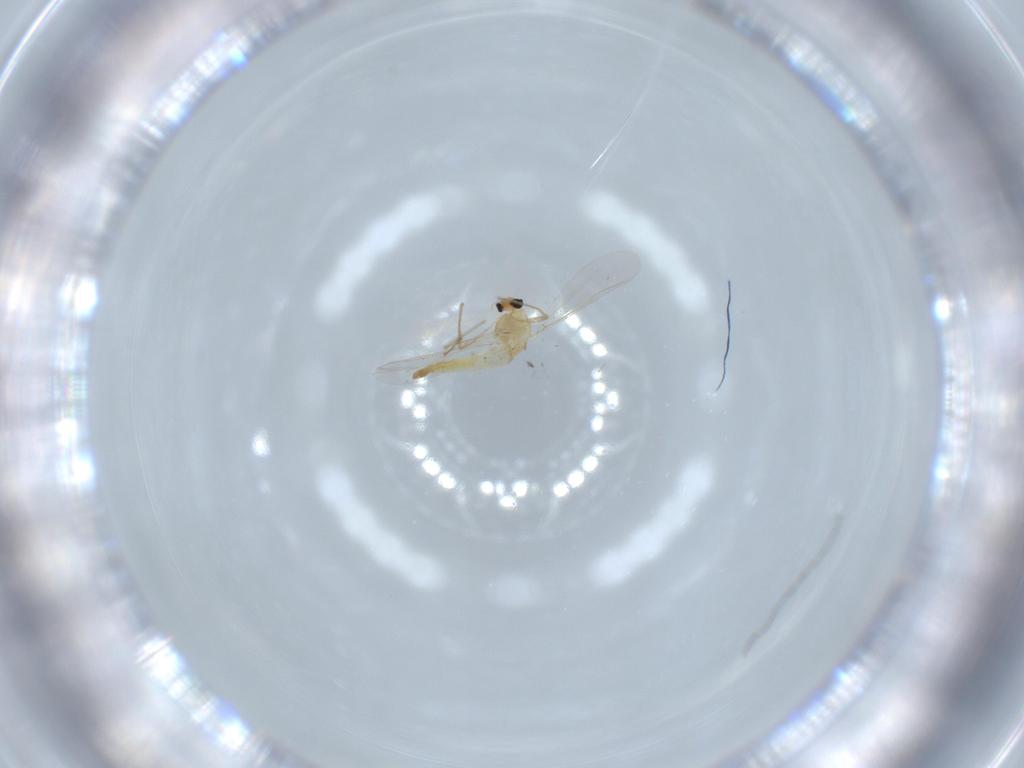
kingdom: Animalia
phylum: Arthropoda
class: Insecta
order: Diptera
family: Chironomidae
